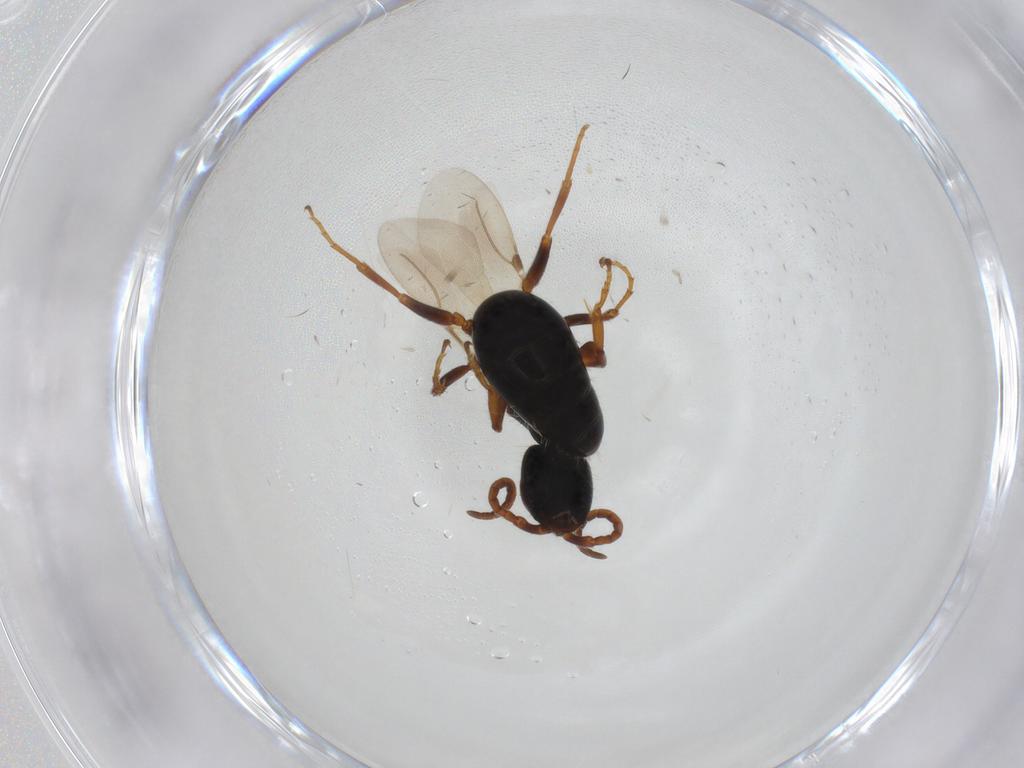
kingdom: Animalia
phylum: Arthropoda
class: Insecta
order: Hymenoptera
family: Bethylidae
